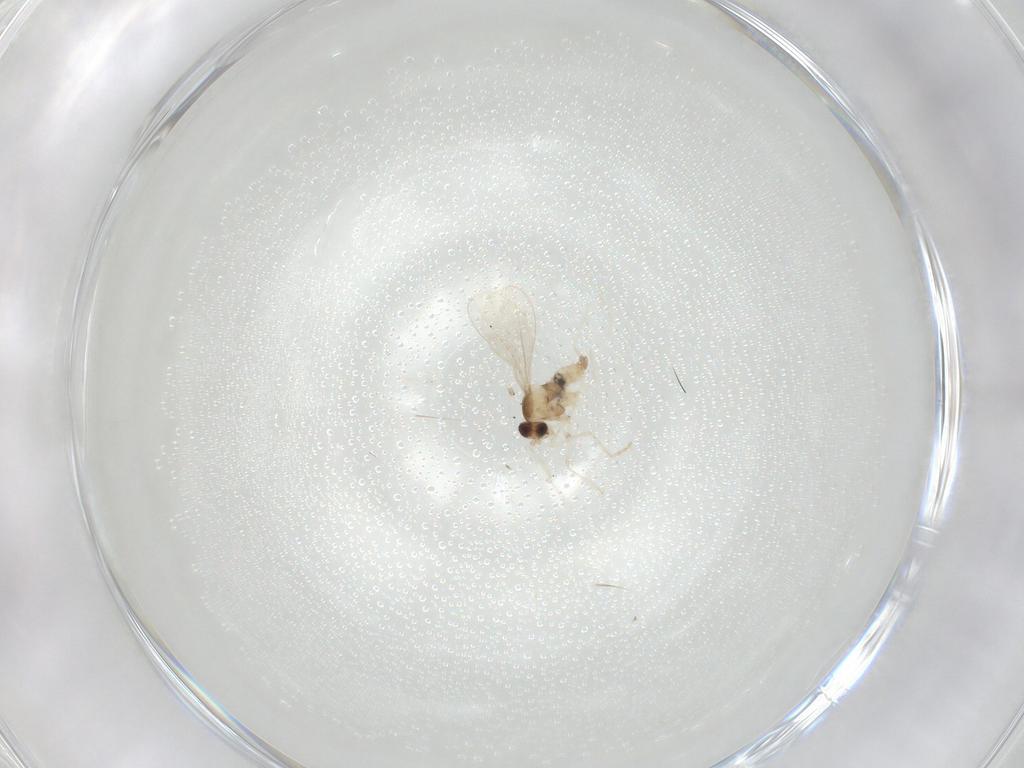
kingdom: Animalia
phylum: Arthropoda
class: Insecta
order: Diptera
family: Cecidomyiidae
